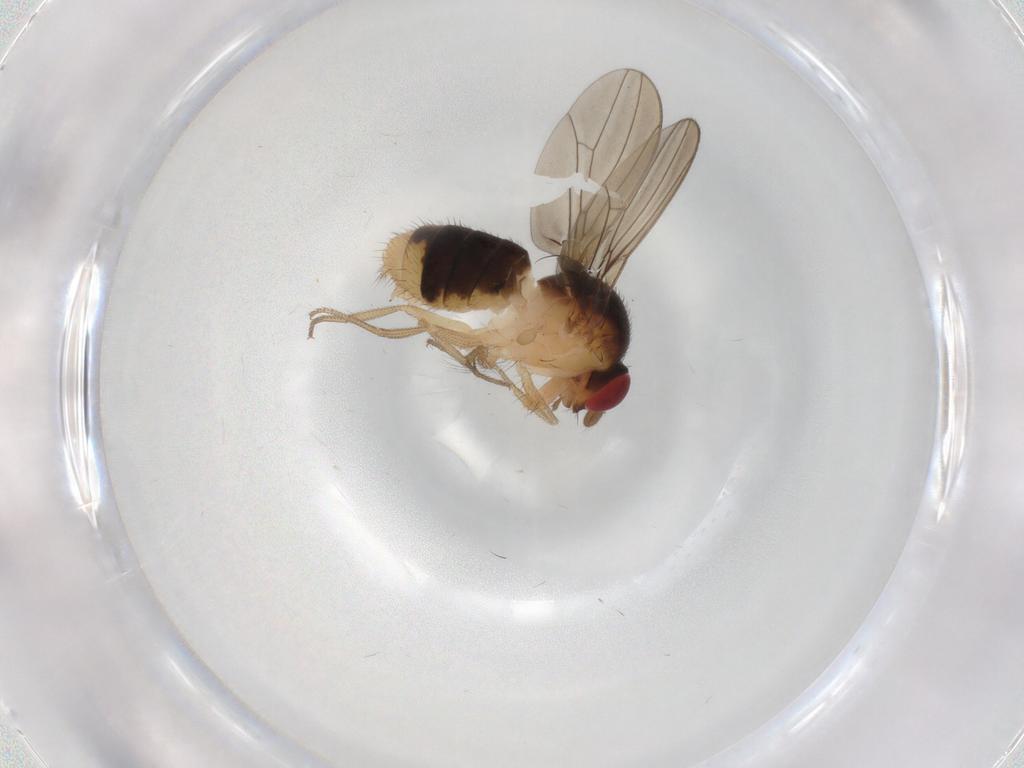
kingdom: Animalia
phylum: Arthropoda
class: Insecta
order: Diptera
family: Drosophilidae
